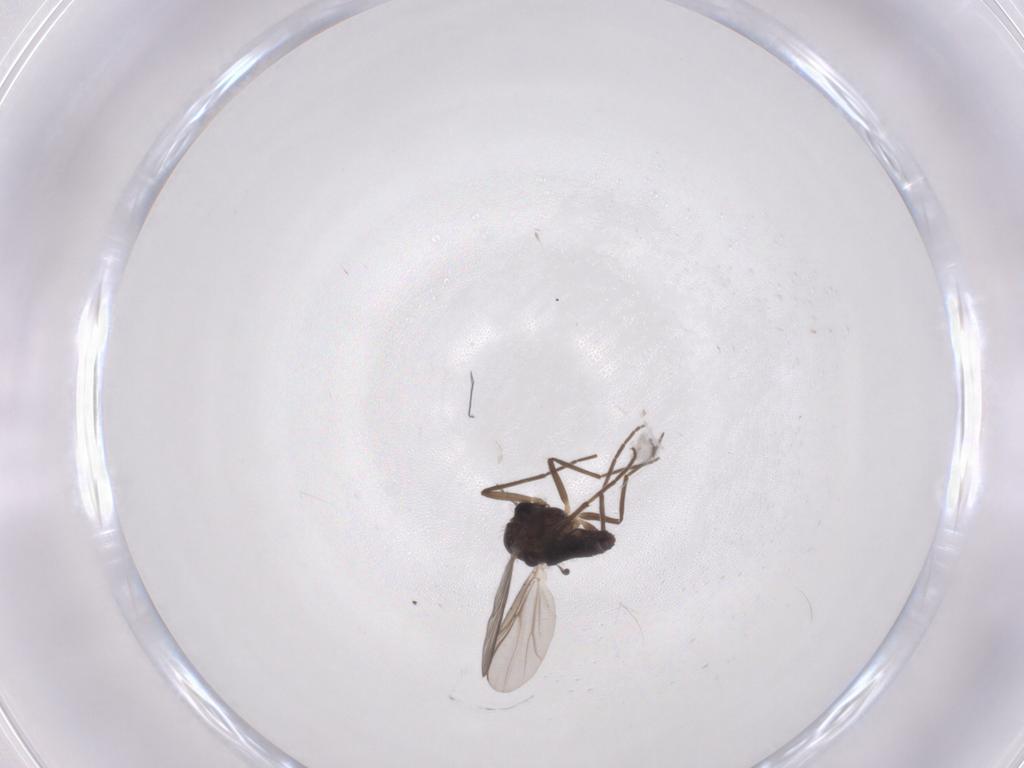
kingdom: Animalia
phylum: Arthropoda
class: Insecta
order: Diptera
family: Chironomidae
